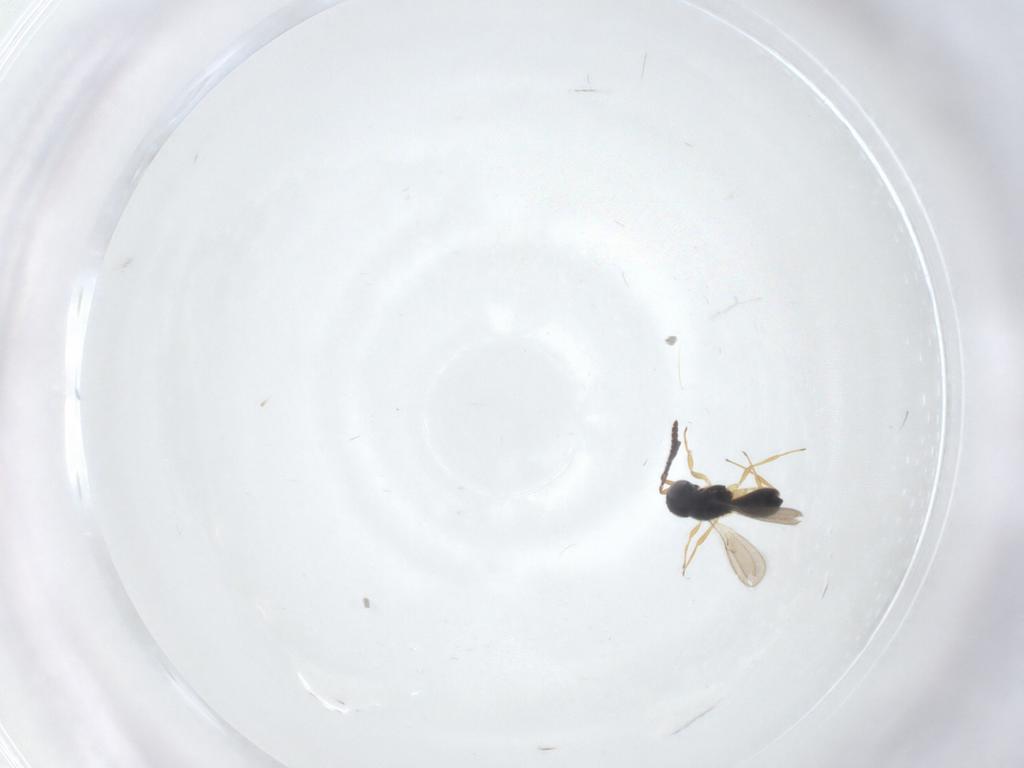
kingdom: Animalia
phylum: Arthropoda
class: Insecta
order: Hymenoptera
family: Scelionidae
